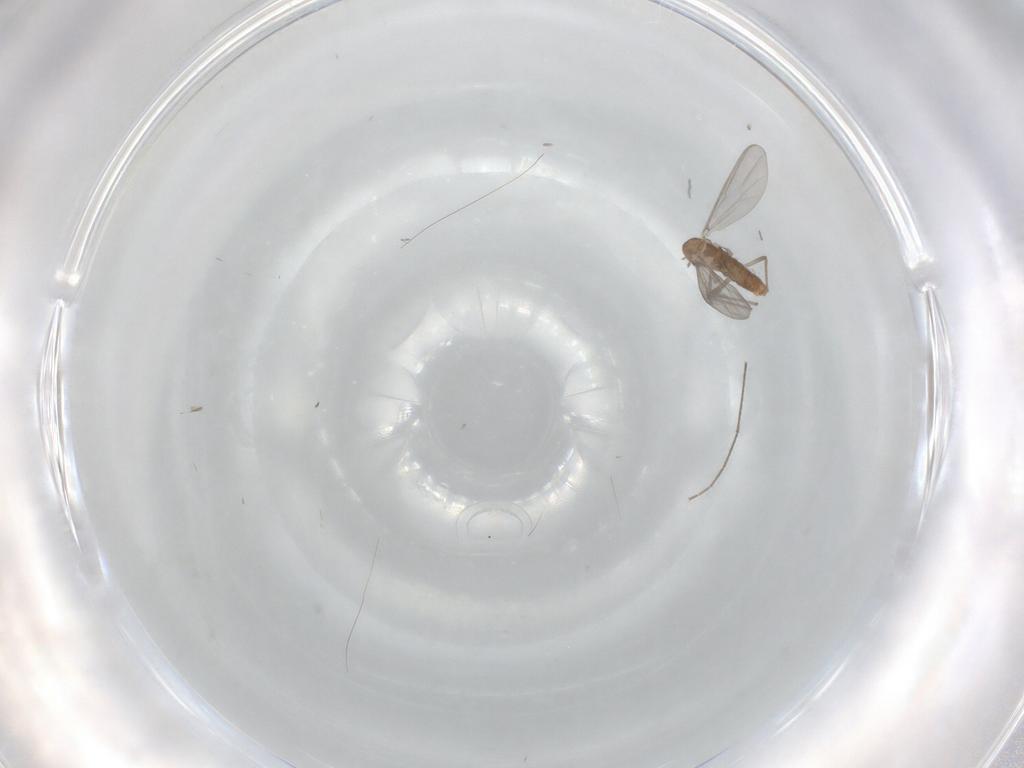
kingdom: Animalia
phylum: Arthropoda
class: Insecta
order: Diptera
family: Chironomidae
